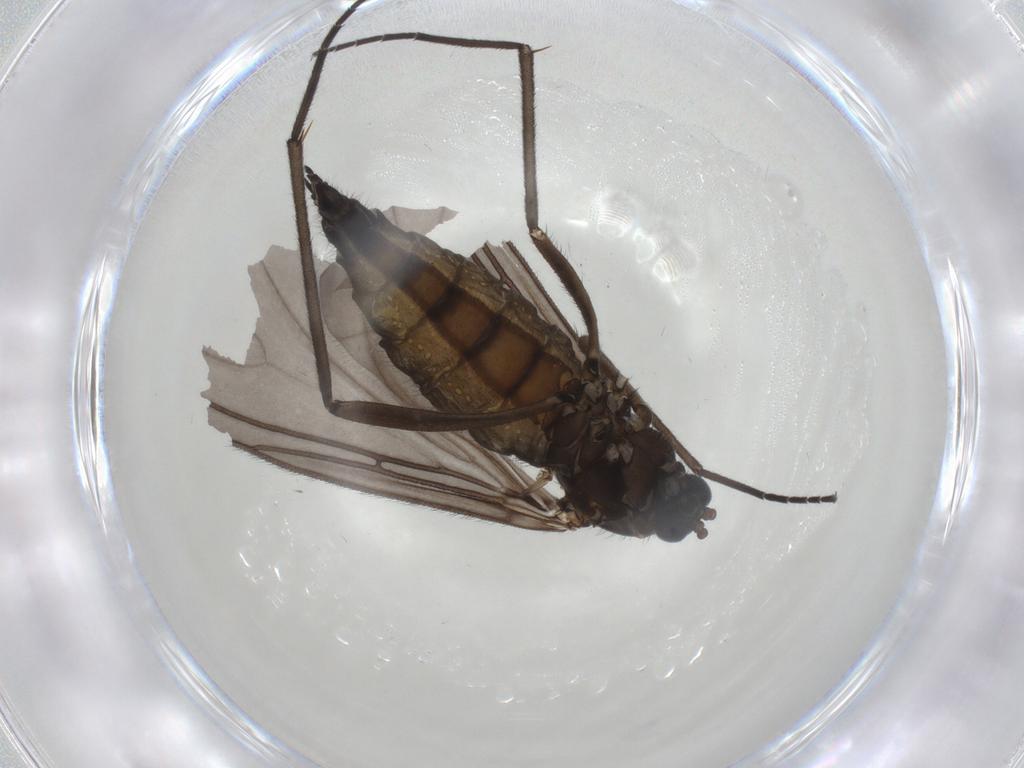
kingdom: Animalia
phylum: Arthropoda
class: Insecta
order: Diptera
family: Sciaridae
